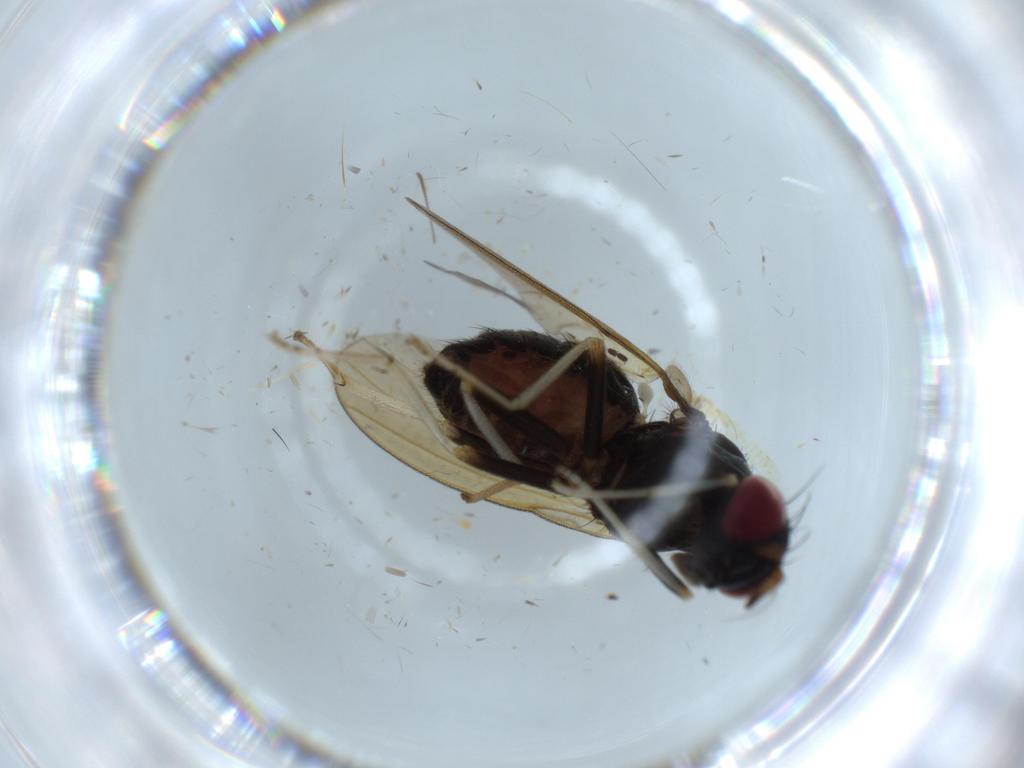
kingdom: Animalia
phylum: Arthropoda
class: Insecta
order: Diptera
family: Sciaridae
